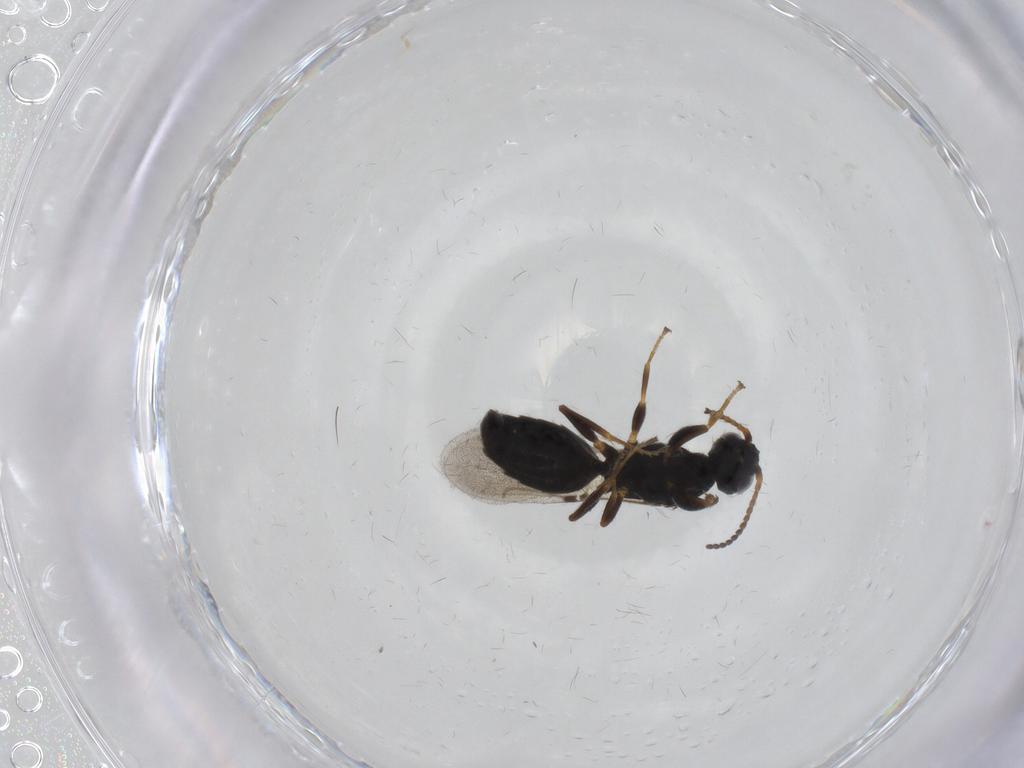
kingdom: Animalia
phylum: Arthropoda
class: Insecta
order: Hymenoptera
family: Bethylidae
